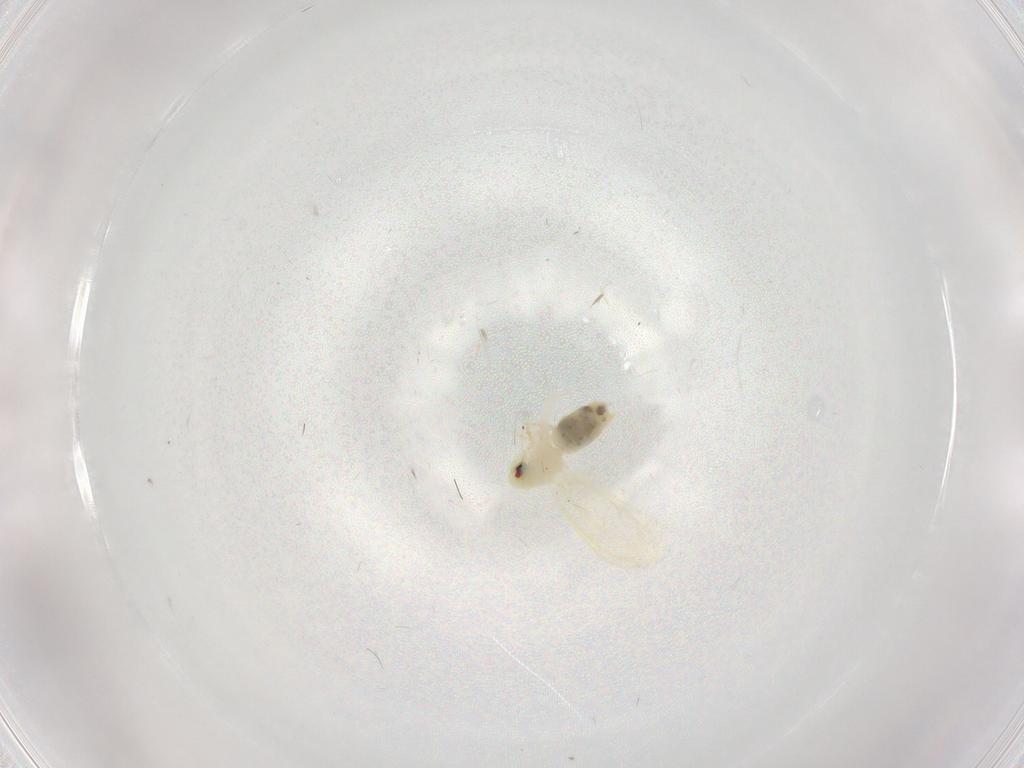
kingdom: Animalia
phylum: Arthropoda
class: Insecta
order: Hemiptera
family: Aleyrodidae
